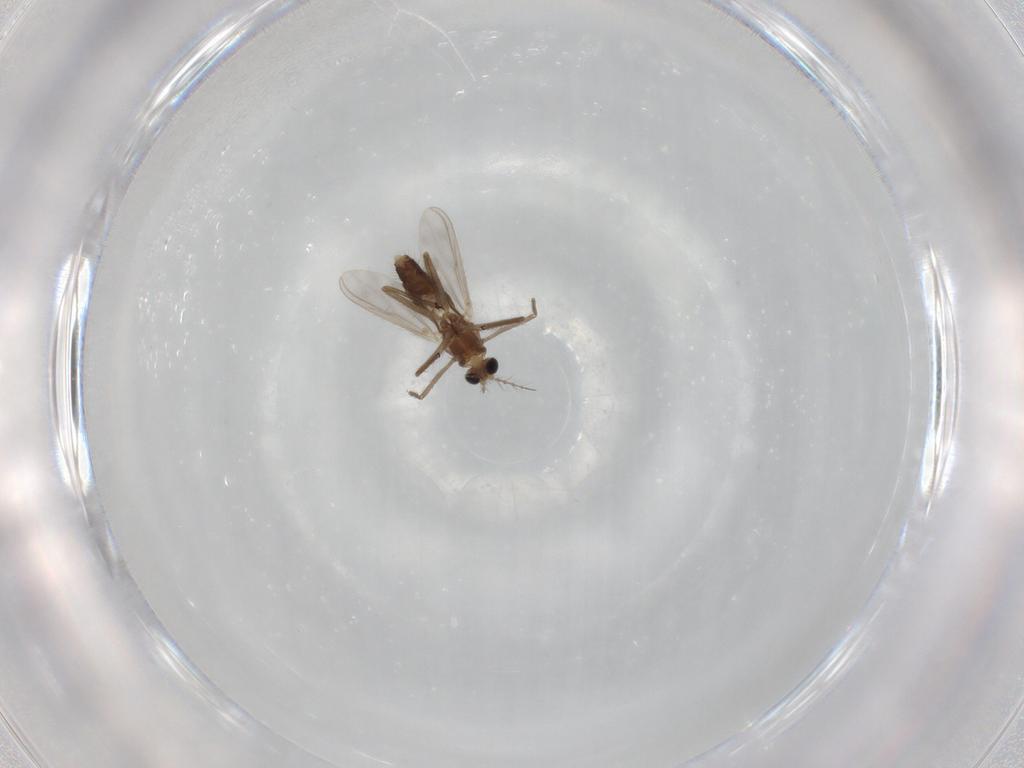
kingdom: Animalia
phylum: Arthropoda
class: Insecta
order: Diptera
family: Chironomidae
